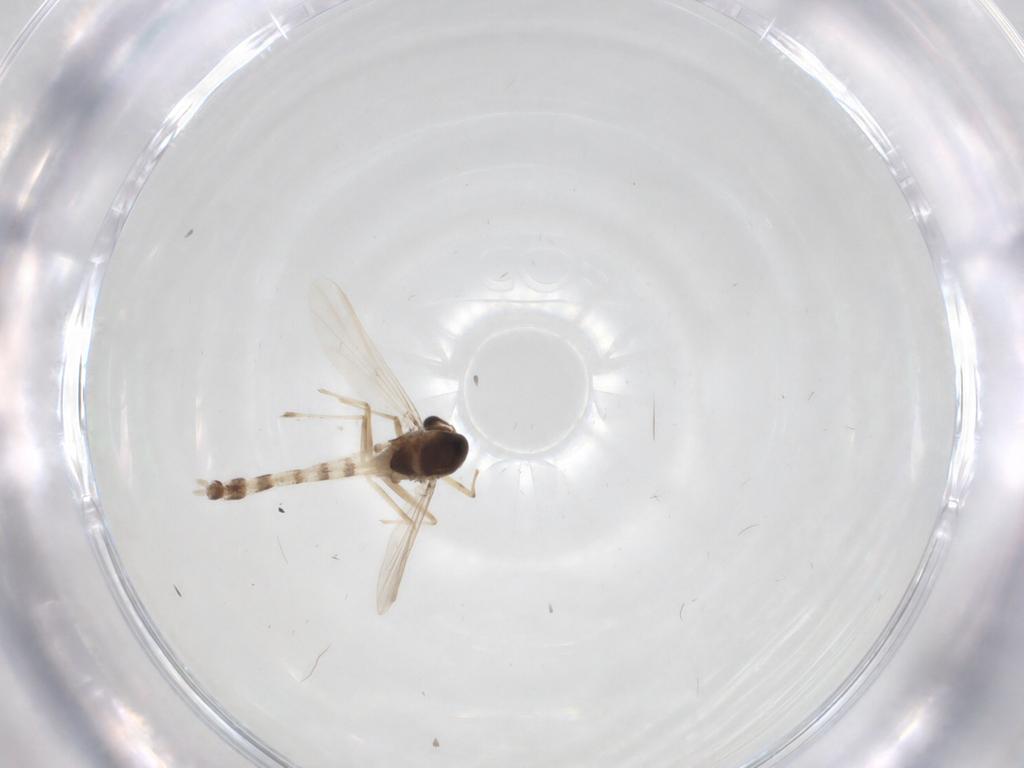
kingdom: Animalia
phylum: Arthropoda
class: Insecta
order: Diptera
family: Chironomidae
